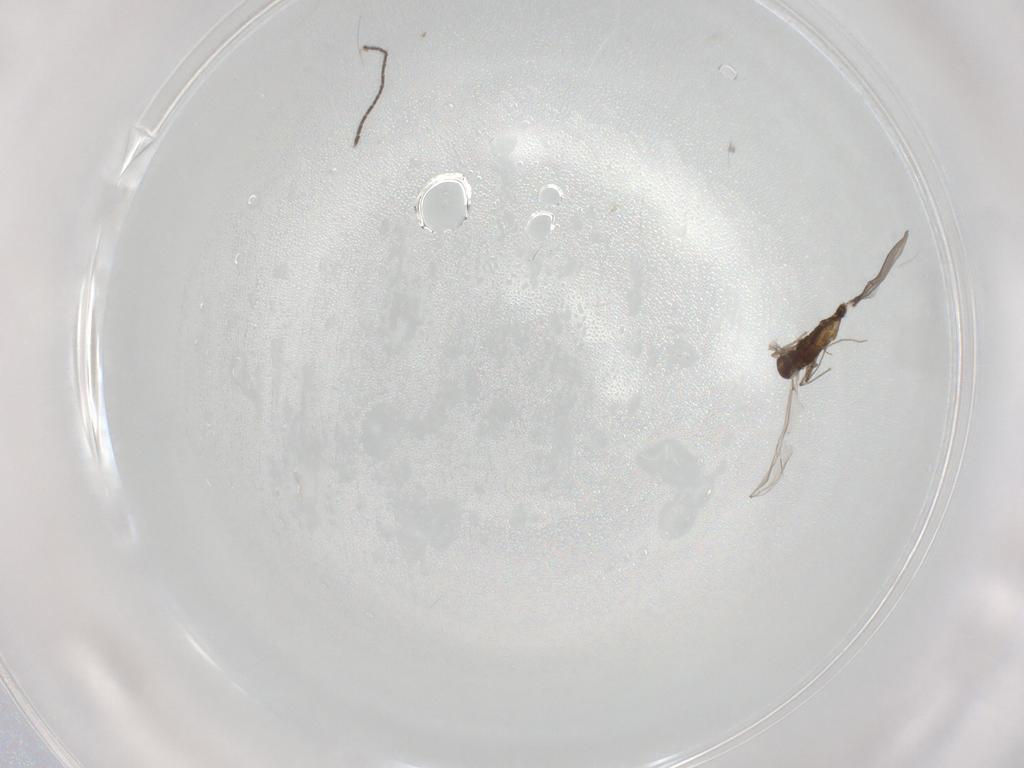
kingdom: Animalia
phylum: Arthropoda
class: Insecta
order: Diptera
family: Chironomidae
